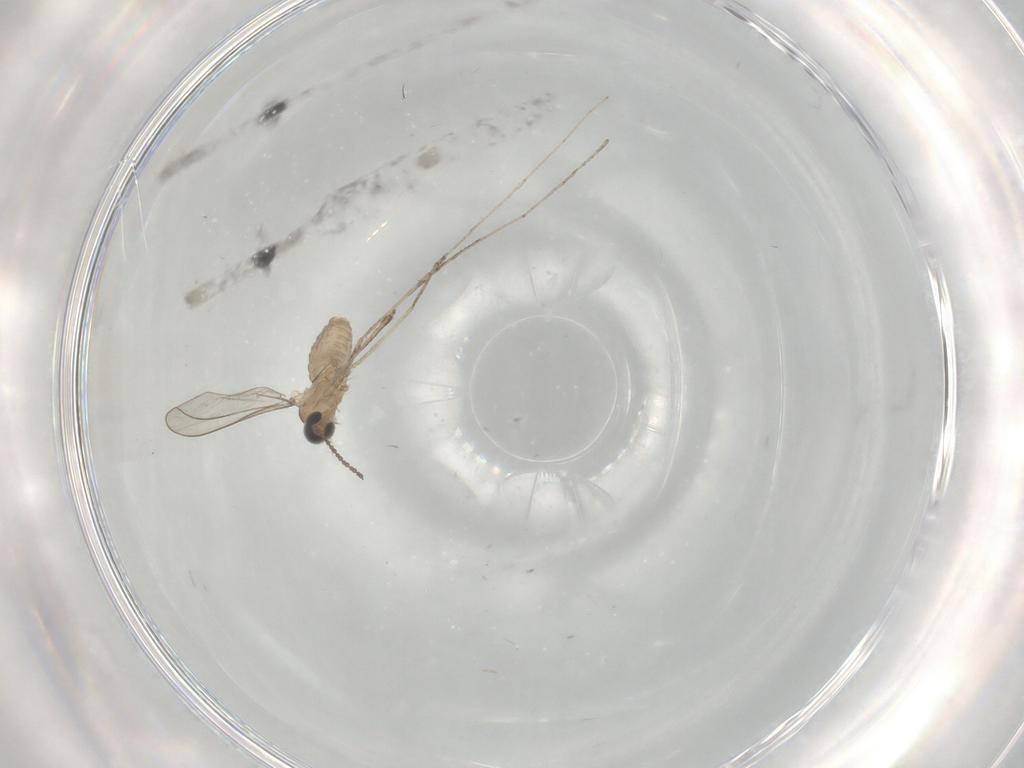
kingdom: Animalia
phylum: Arthropoda
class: Insecta
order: Diptera
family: Cecidomyiidae
